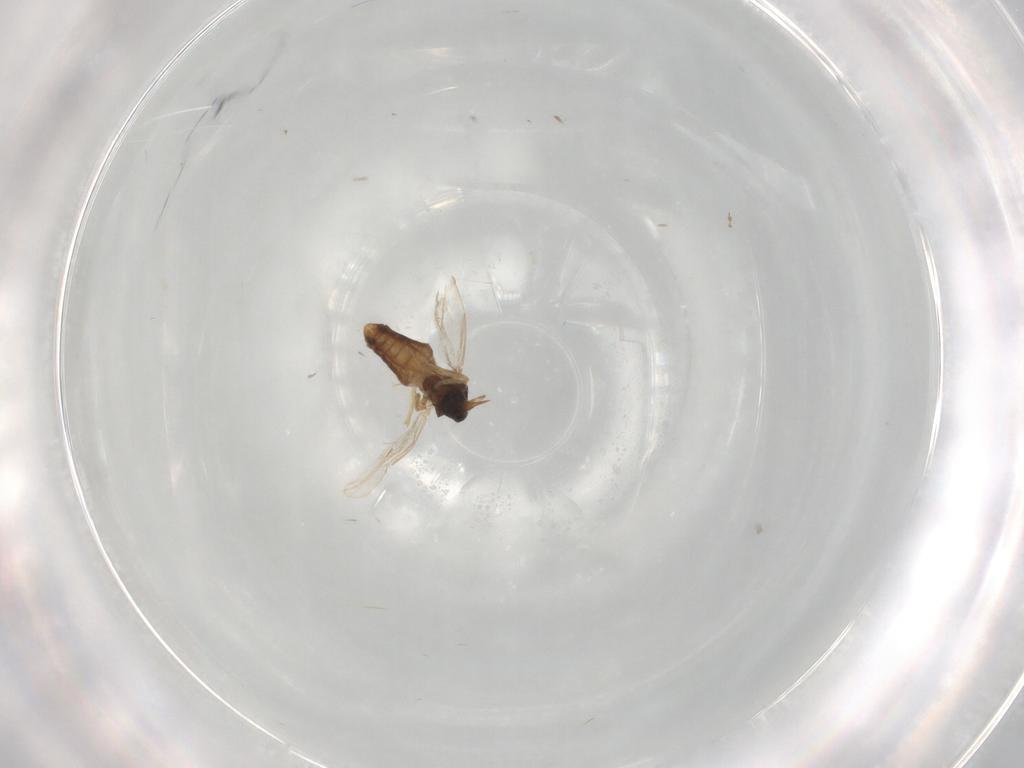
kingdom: Animalia
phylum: Arthropoda
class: Insecta
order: Diptera
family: Ceratopogonidae
